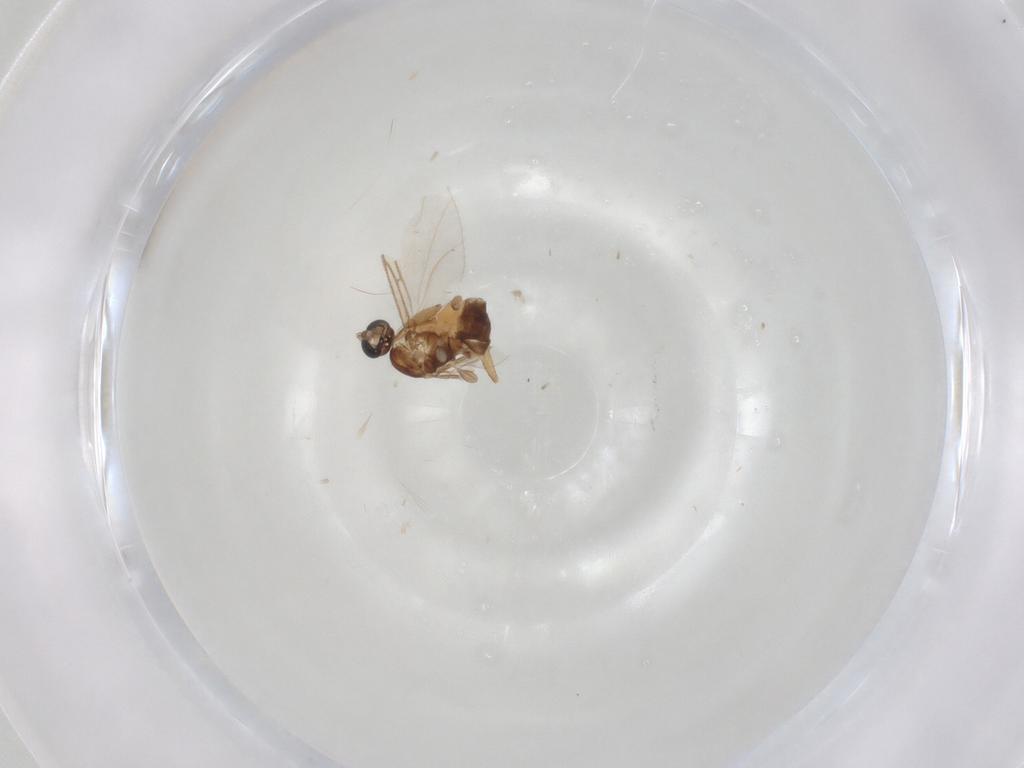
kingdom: Animalia
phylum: Arthropoda
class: Insecta
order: Diptera
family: Sciaridae
